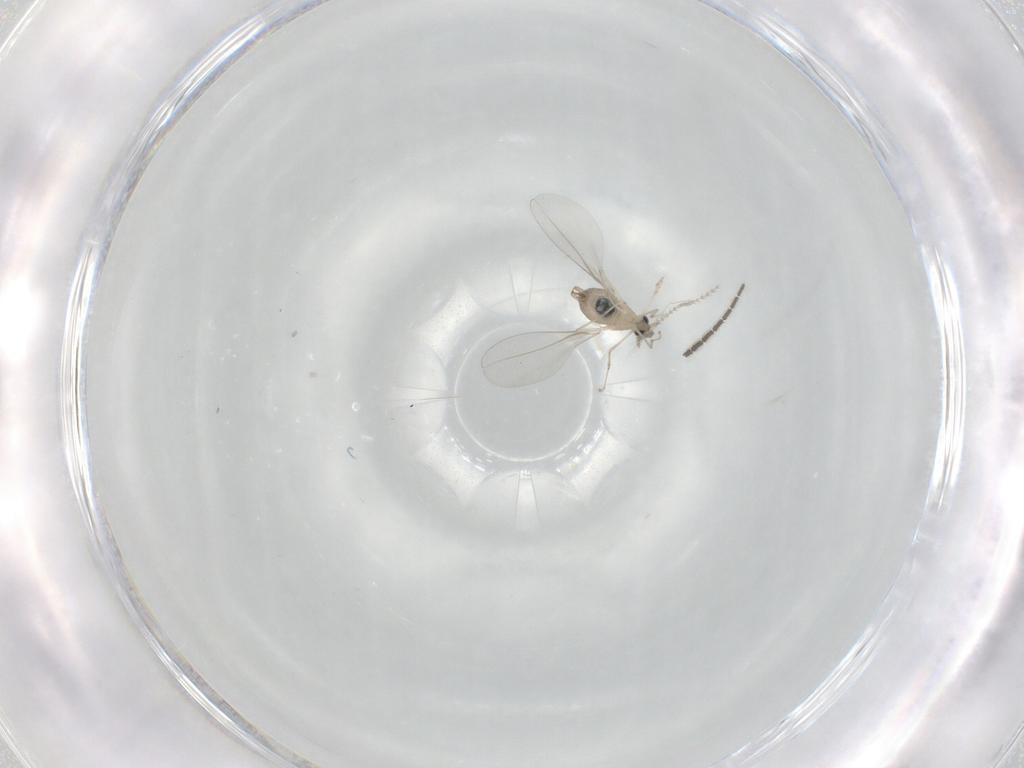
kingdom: Animalia
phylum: Arthropoda
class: Insecta
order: Diptera
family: Cecidomyiidae
